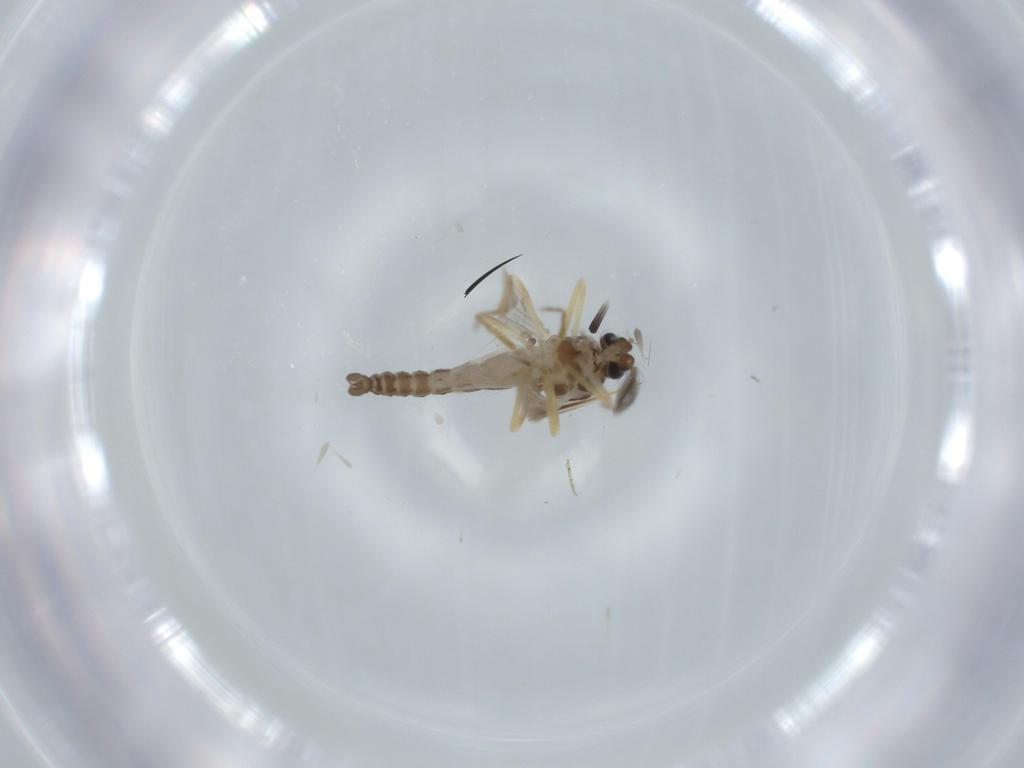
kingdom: Animalia
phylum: Arthropoda
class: Insecta
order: Diptera
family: Ceratopogonidae
